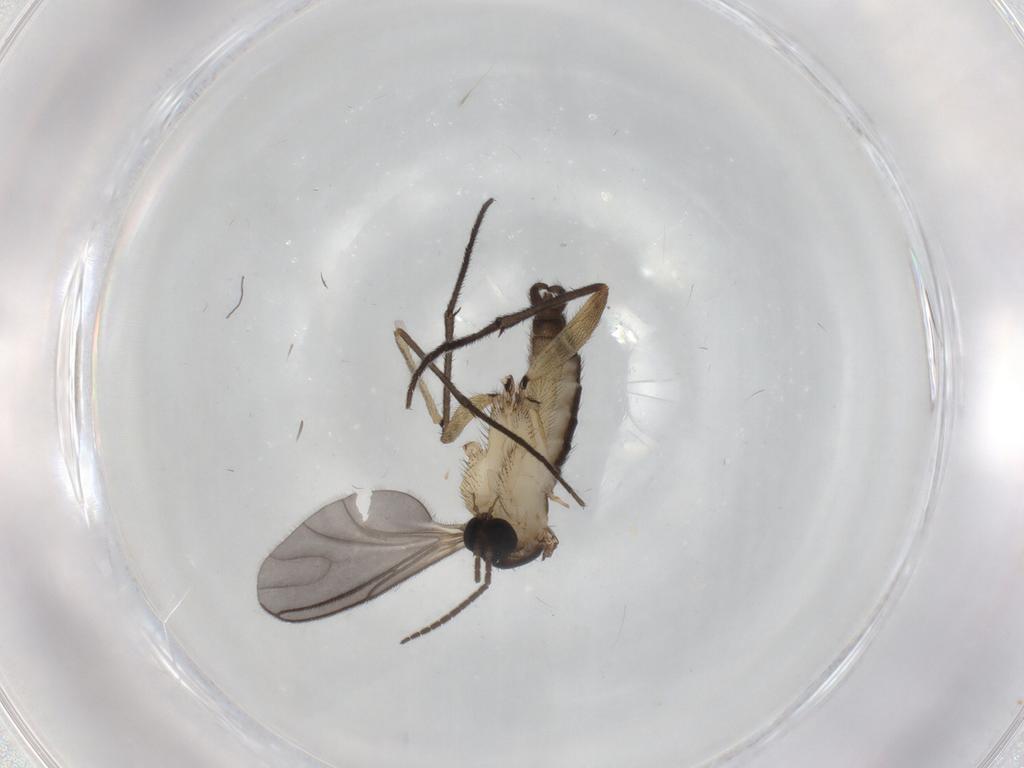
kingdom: Animalia
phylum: Arthropoda
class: Insecta
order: Diptera
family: Sciaridae
